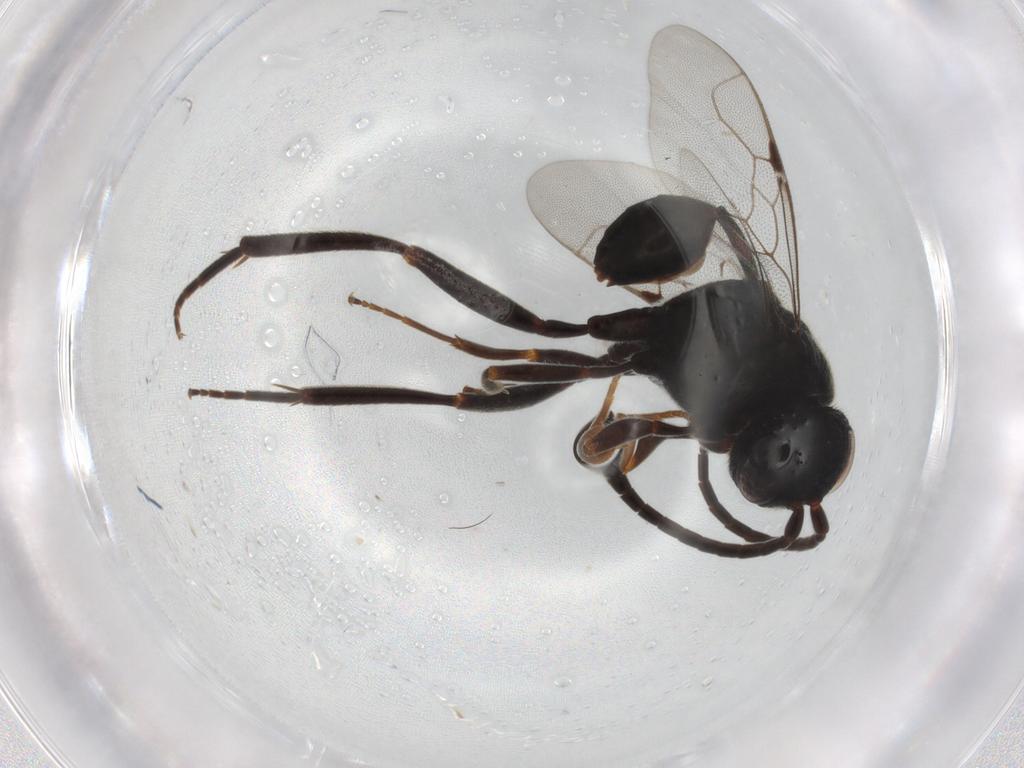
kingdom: Animalia
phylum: Arthropoda
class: Insecta
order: Hymenoptera
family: Evaniidae
